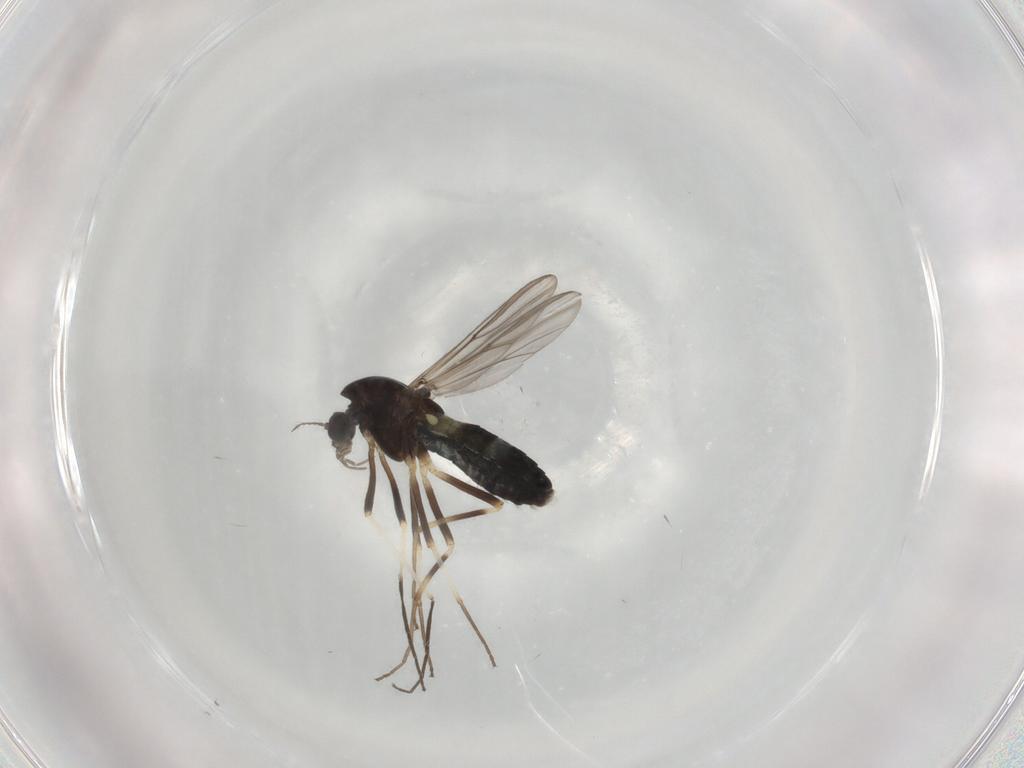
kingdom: Animalia
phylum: Arthropoda
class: Insecta
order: Diptera
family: Chironomidae
